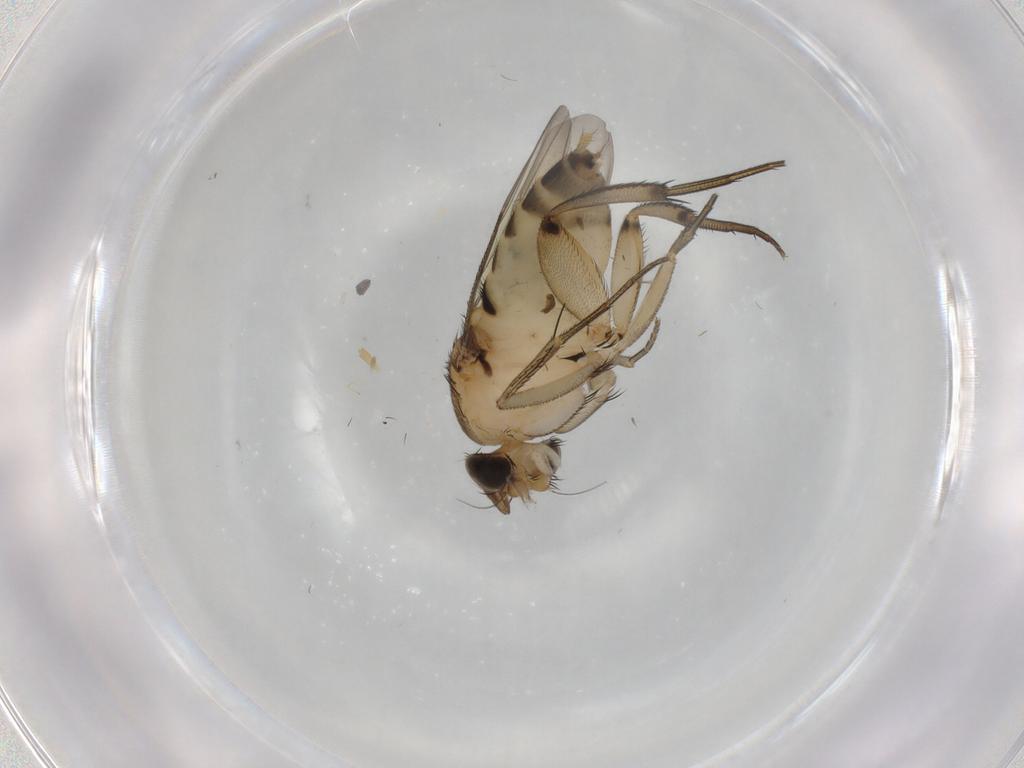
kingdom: Animalia
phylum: Arthropoda
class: Insecta
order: Diptera
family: Phoridae
